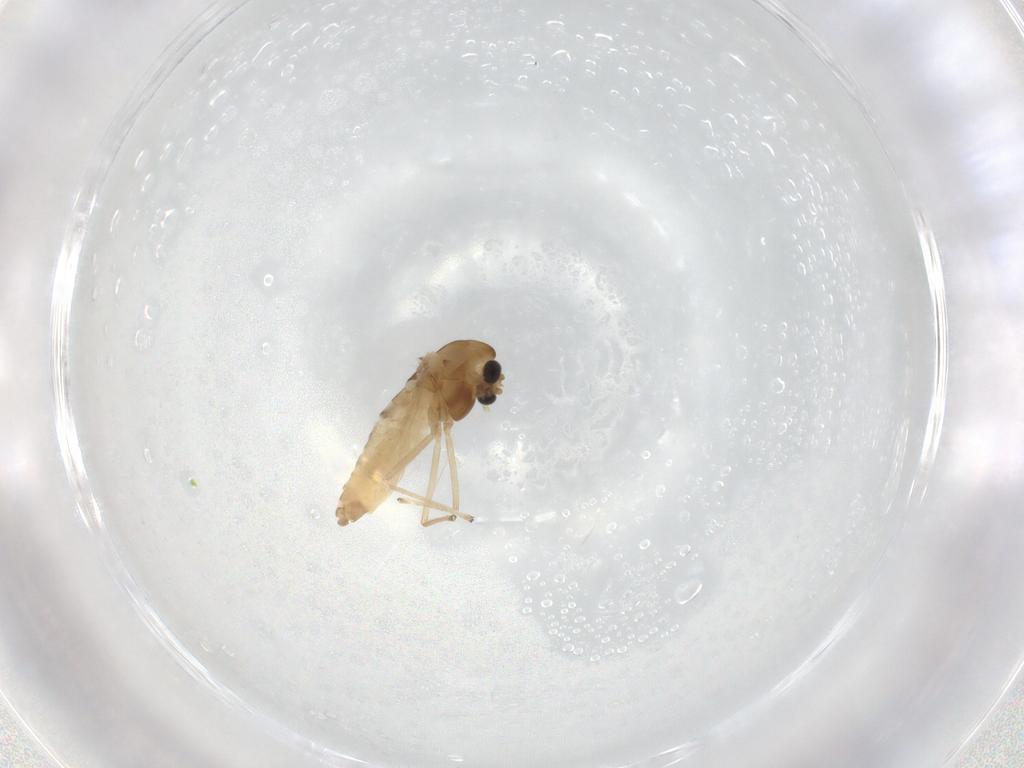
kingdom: Animalia
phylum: Arthropoda
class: Insecta
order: Diptera
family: Chironomidae
